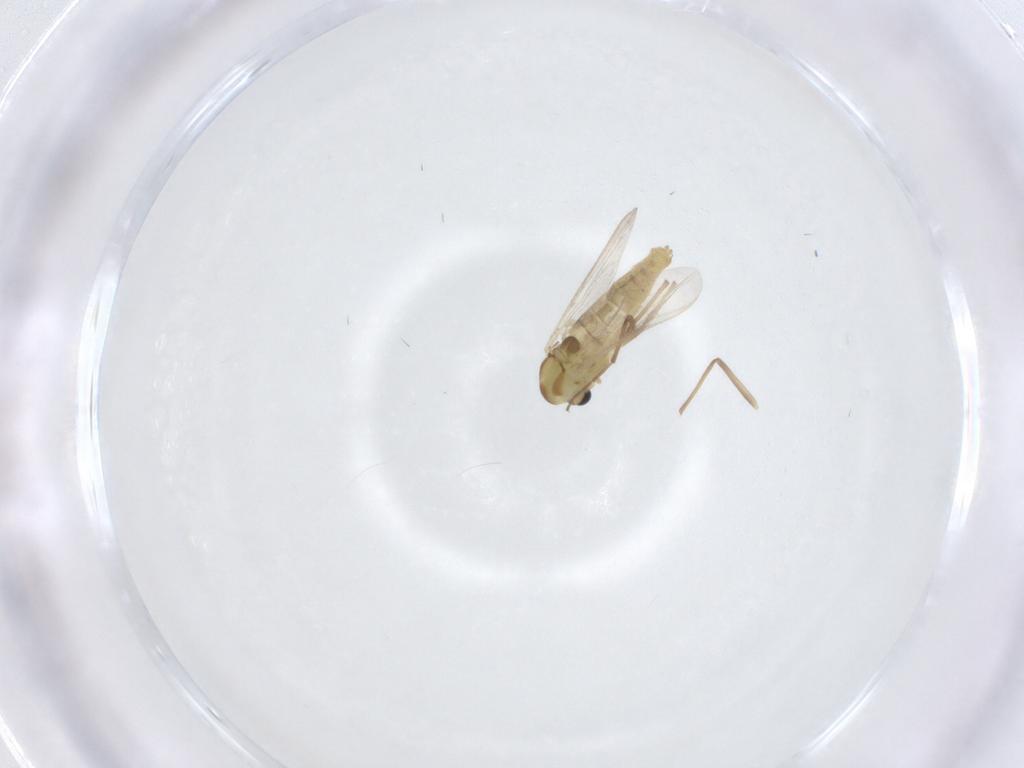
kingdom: Animalia
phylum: Arthropoda
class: Insecta
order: Diptera
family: Chironomidae
